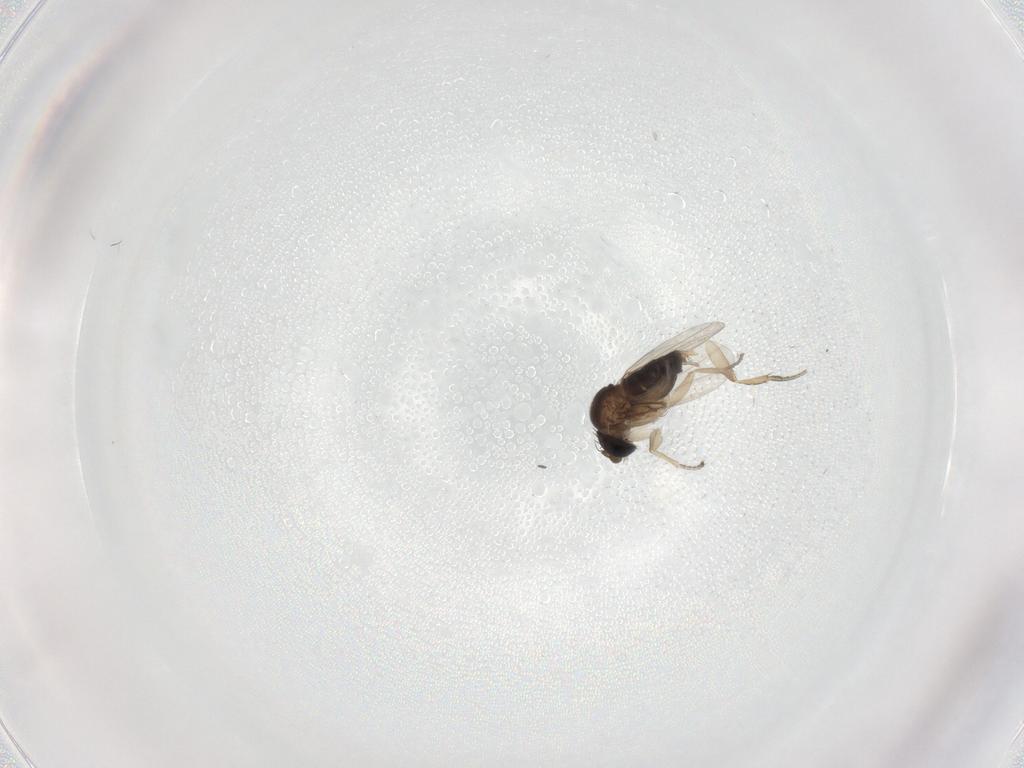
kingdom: Animalia
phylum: Arthropoda
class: Insecta
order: Diptera
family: Phoridae
